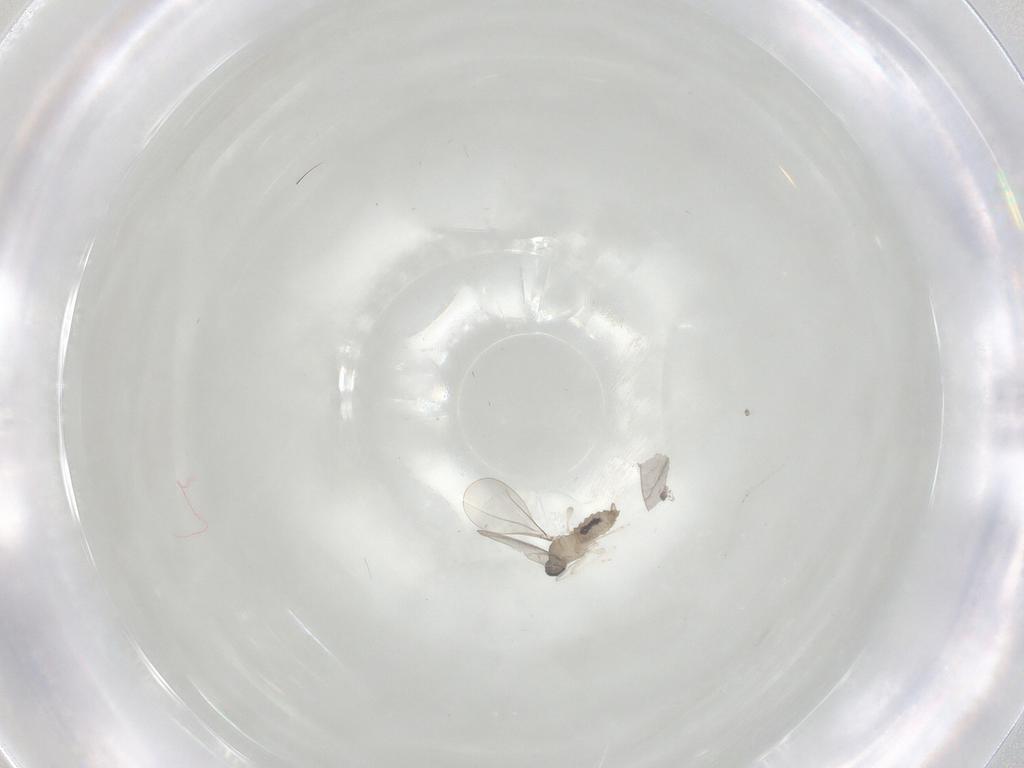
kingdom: Animalia
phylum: Arthropoda
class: Insecta
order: Diptera
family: Cecidomyiidae
